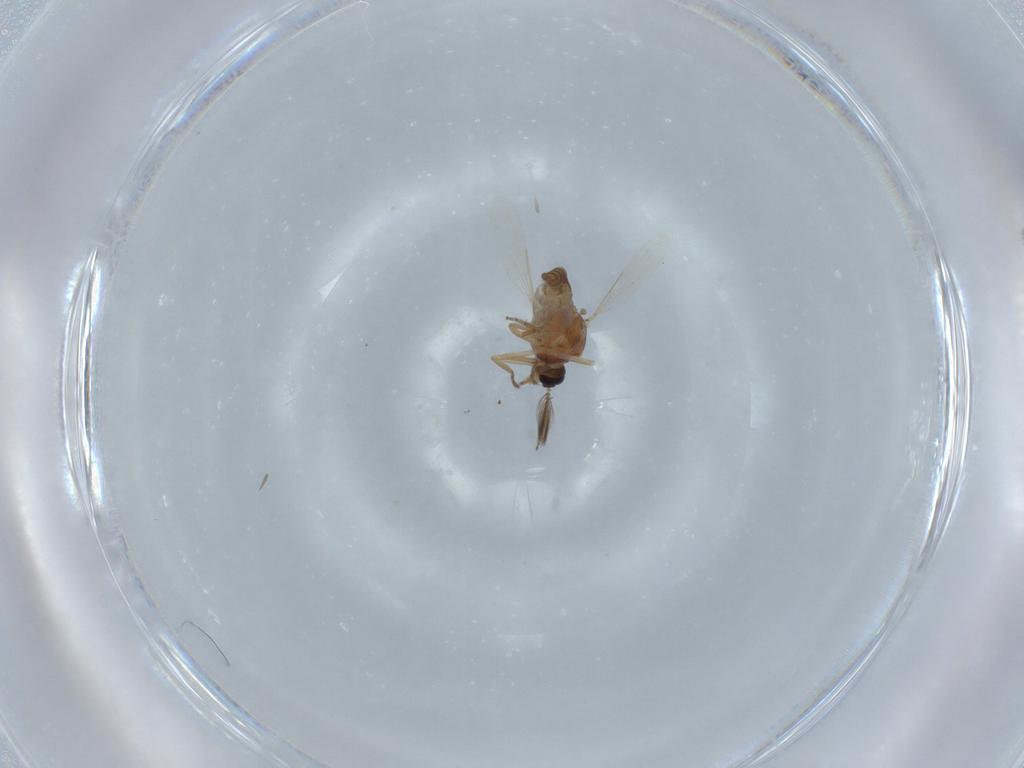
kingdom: Animalia
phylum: Arthropoda
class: Insecta
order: Diptera
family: Ceratopogonidae
